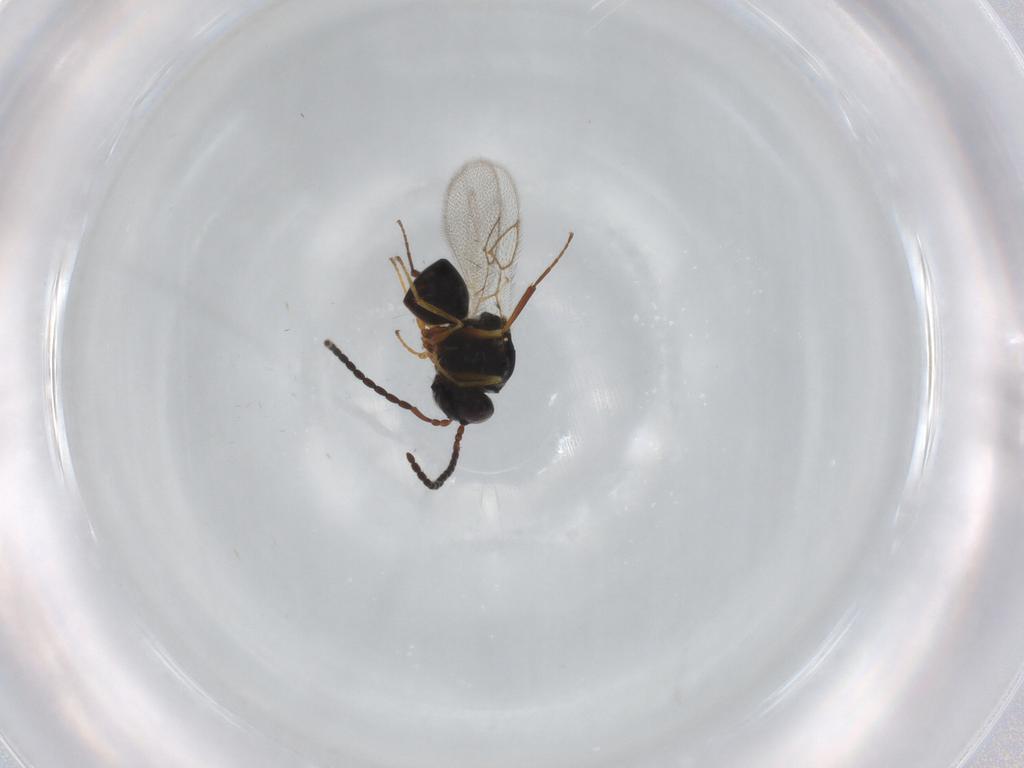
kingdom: Animalia
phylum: Arthropoda
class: Insecta
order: Hymenoptera
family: Figitidae
